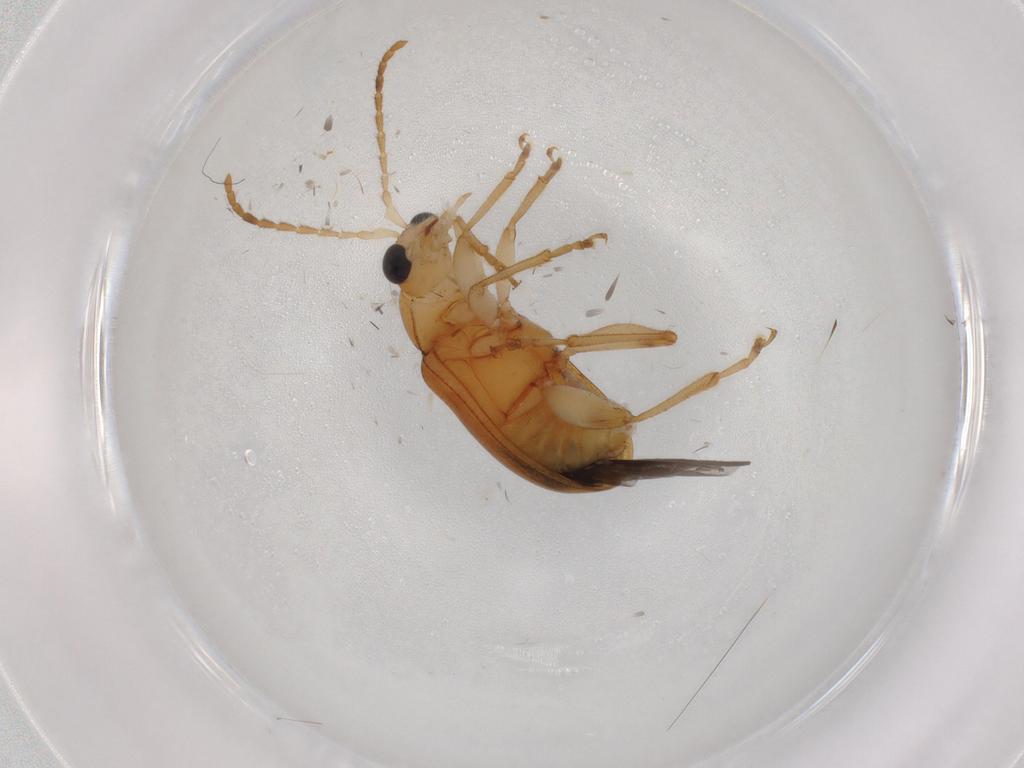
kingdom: Animalia
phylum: Arthropoda
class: Insecta
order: Coleoptera
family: Chrysomelidae
